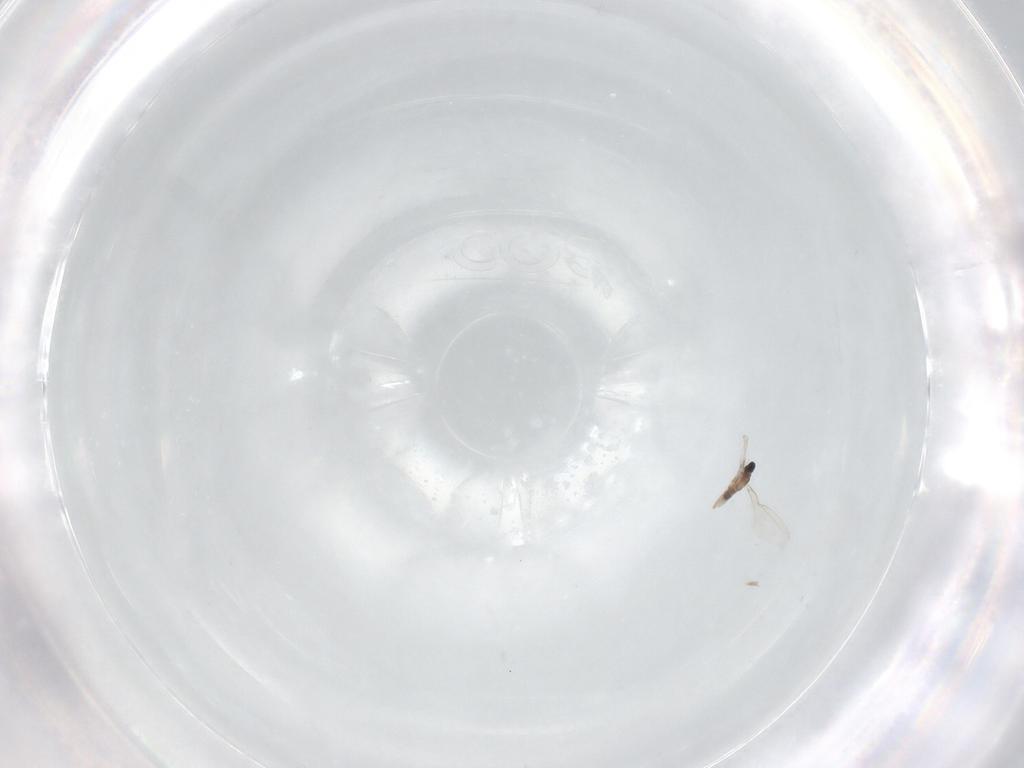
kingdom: Animalia
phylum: Arthropoda
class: Insecta
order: Diptera
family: Cecidomyiidae
